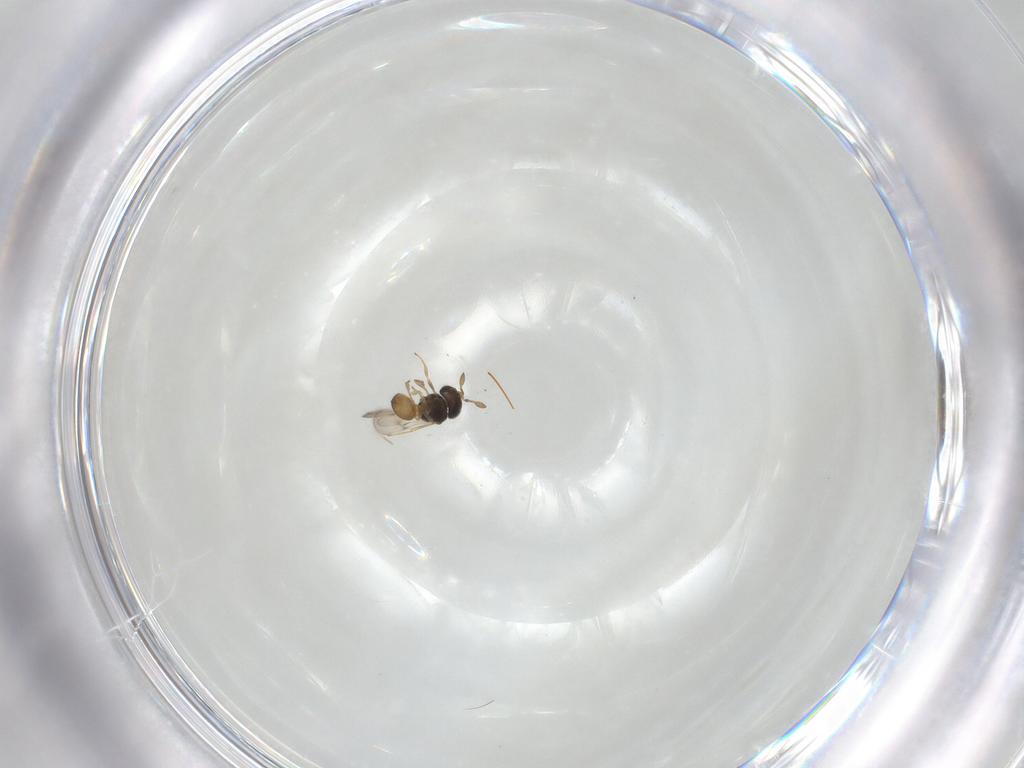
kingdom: Animalia
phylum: Arthropoda
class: Insecta
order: Hymenoptera
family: Scelionidae
